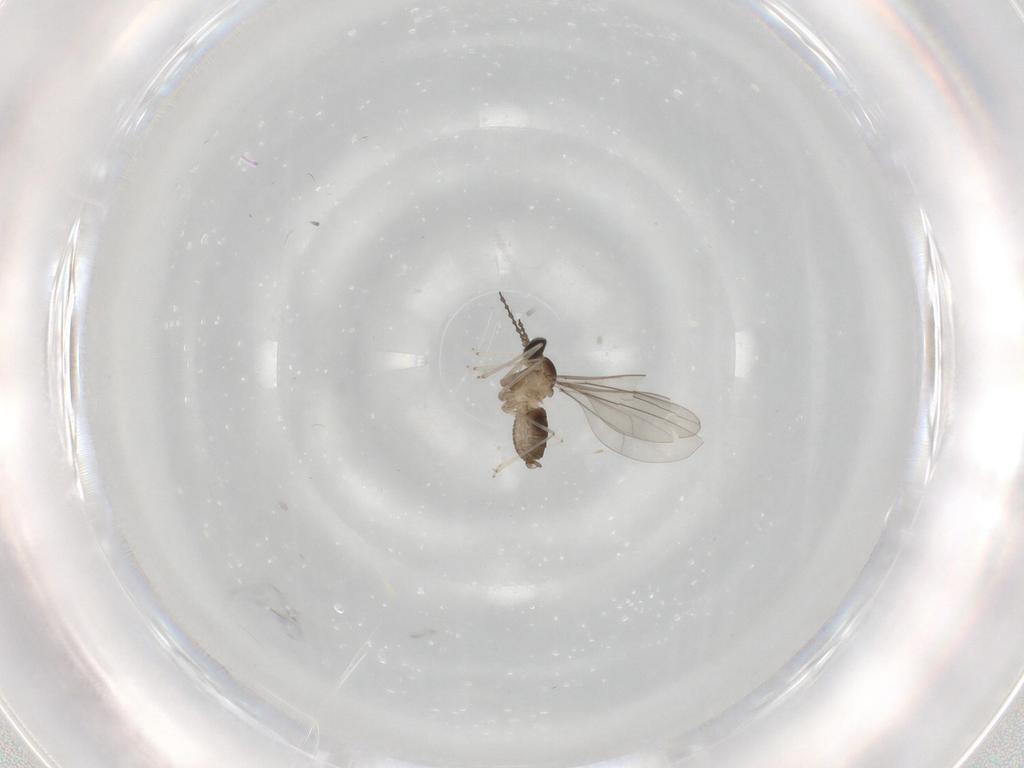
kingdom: Animalia
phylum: Arthropoda
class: Insecta
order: Diptera
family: Cecidomyiidae
